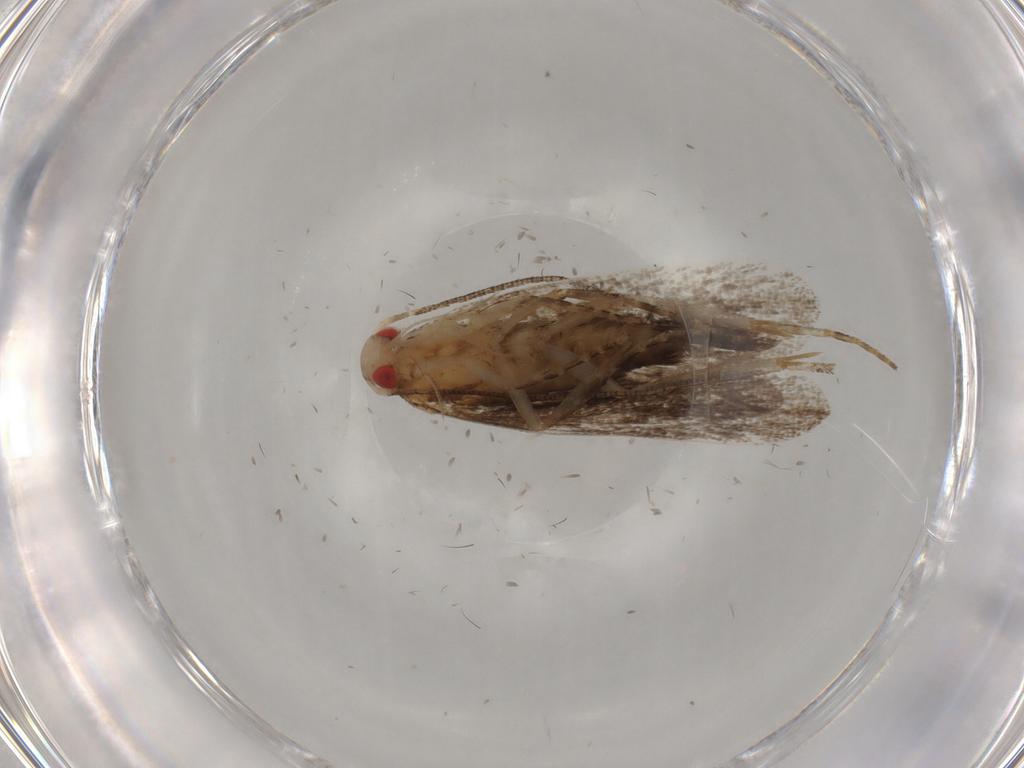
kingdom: Animalia
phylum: Arthropoda
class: Insecta
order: Lepidoptera
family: Gelechiidae
